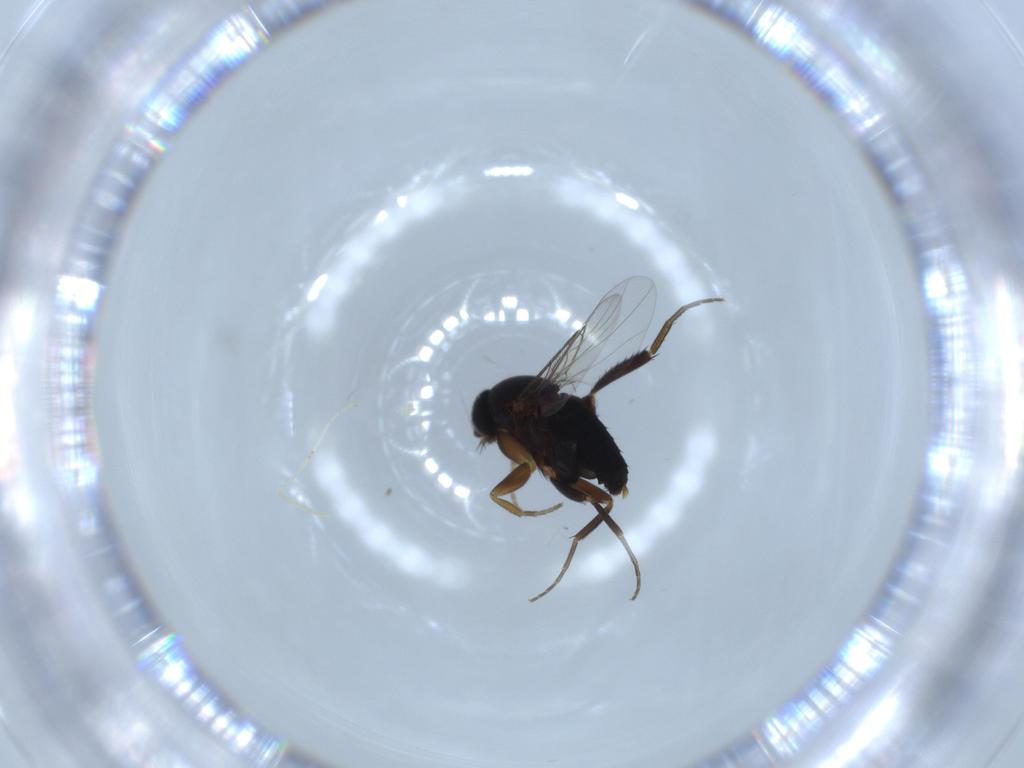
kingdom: Animalia
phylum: Arthropoda
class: Insecta
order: Diptera
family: Phoridae
